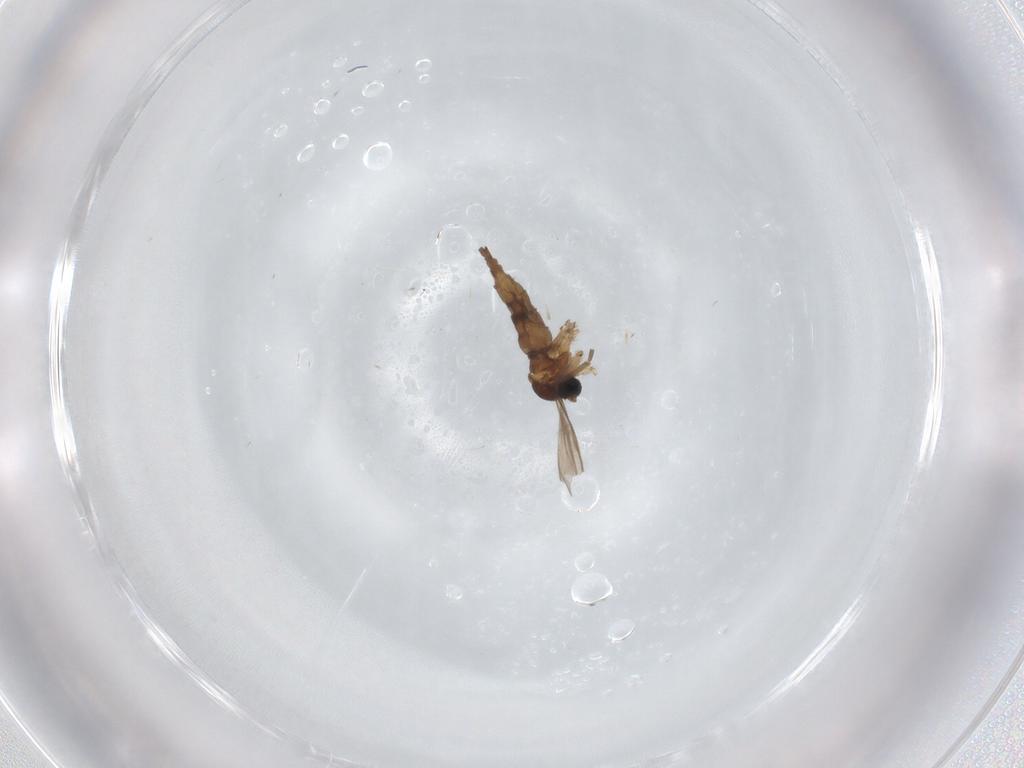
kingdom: Animalia
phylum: Arthropoda
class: Insecta
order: Diptera
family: Sciaridae
